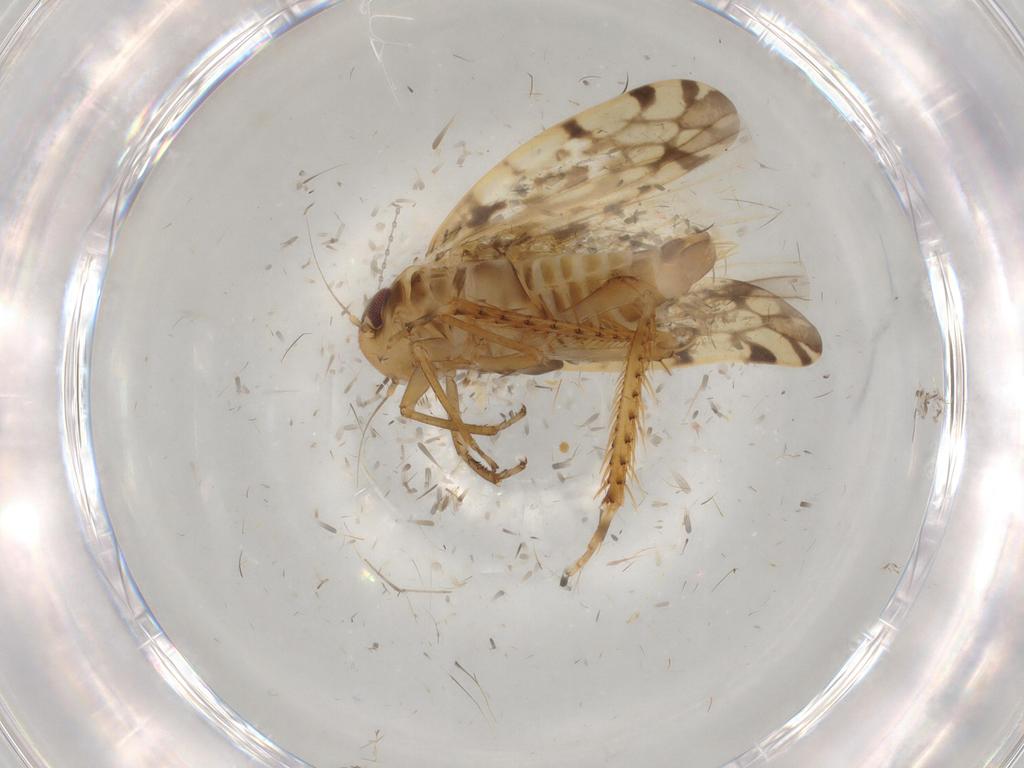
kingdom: Animalia
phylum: Arthropoda
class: Insecta
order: Hemiptera
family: Cicadellidae
